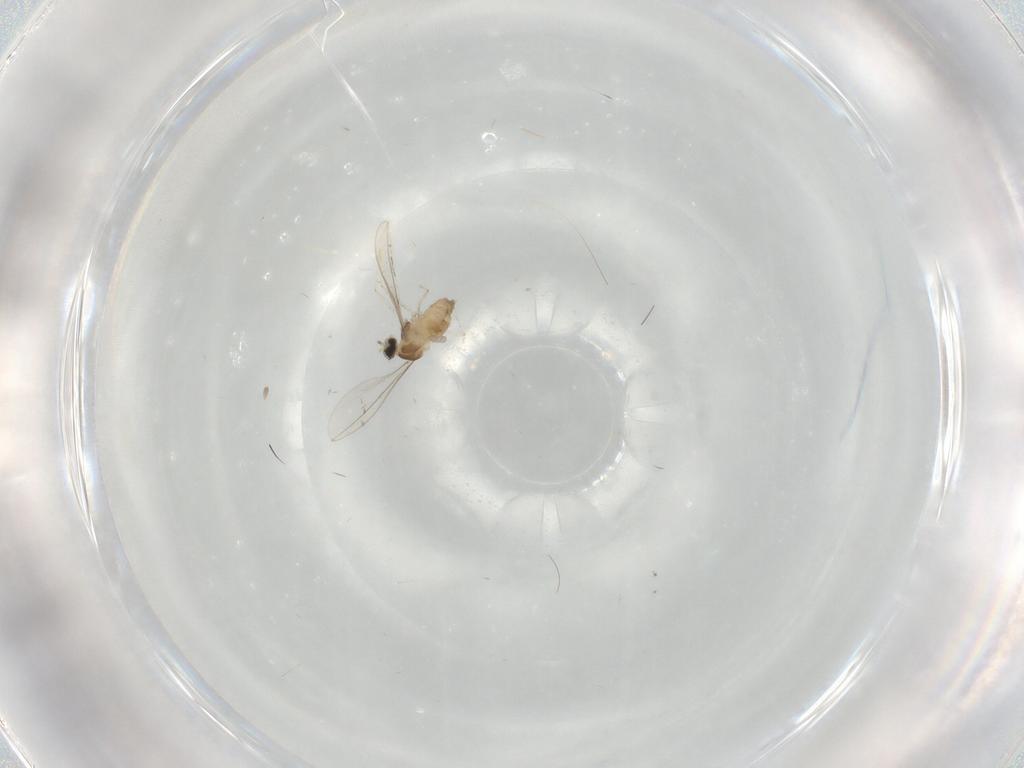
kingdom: Animalia
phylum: Arthropoda
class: Insecta
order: Diptera
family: Cecidomyiidae
